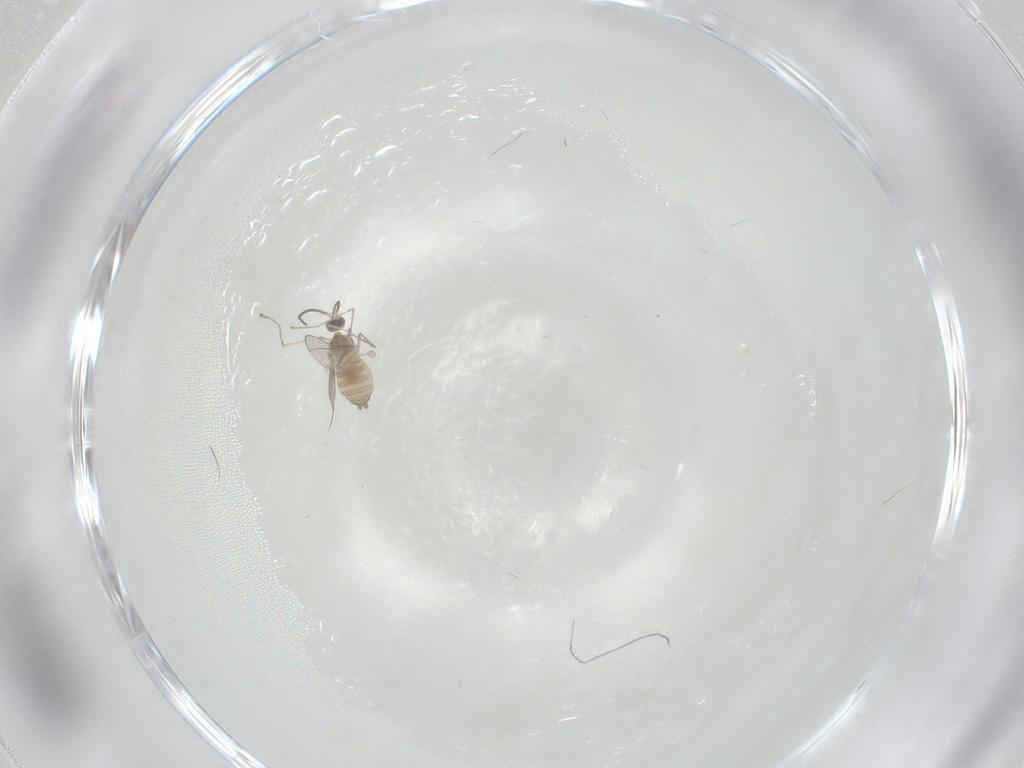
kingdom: Animalia
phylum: Arthropoda
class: Insecta
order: Diptera
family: Cecidomyiidae
